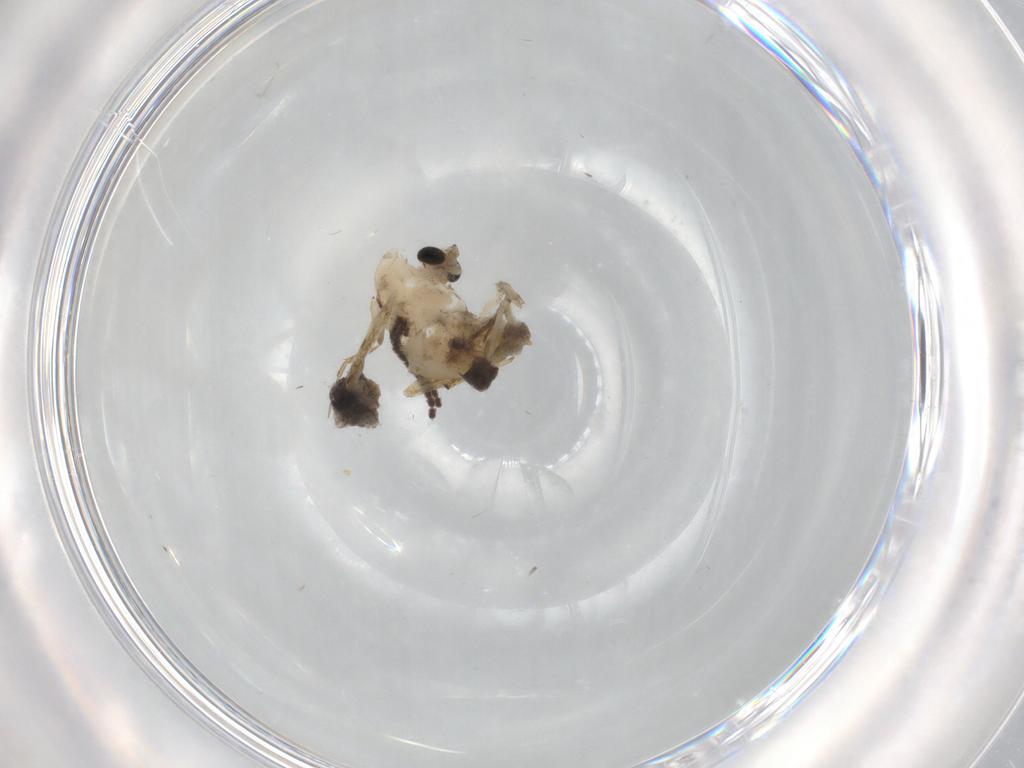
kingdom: Animalia
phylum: Arthropoda
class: Insecta
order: Diptera
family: Chironomidae
